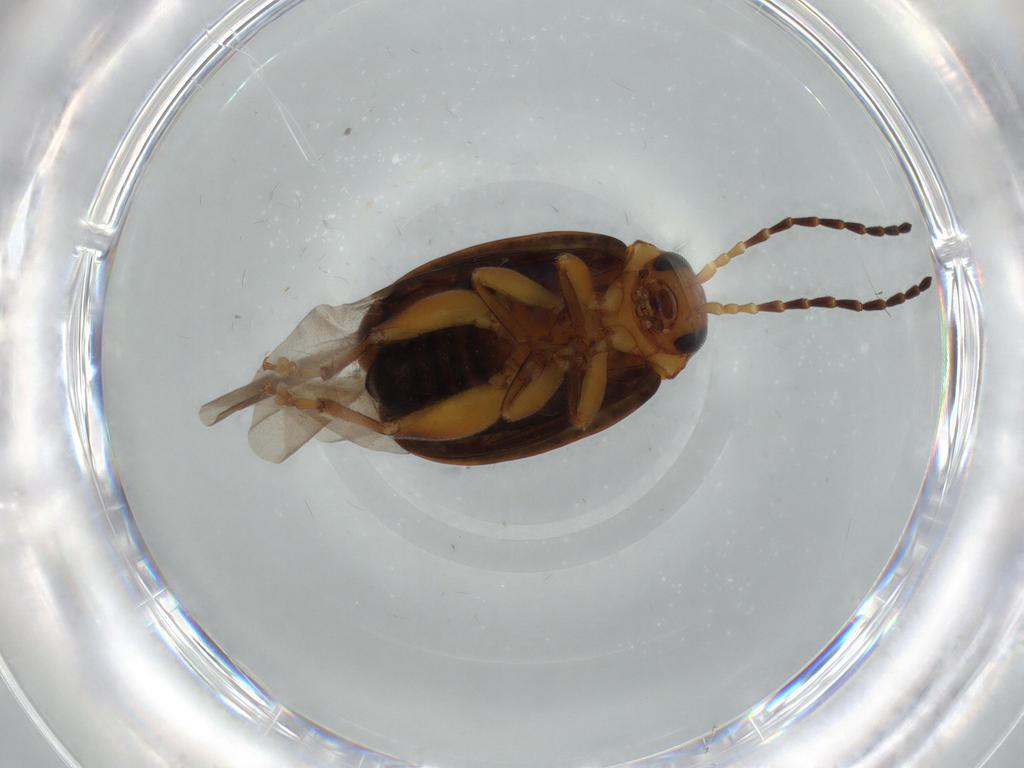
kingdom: Animalia
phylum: Arthropoda
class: Insecta
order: Coleoptera
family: Chrysomelidae
